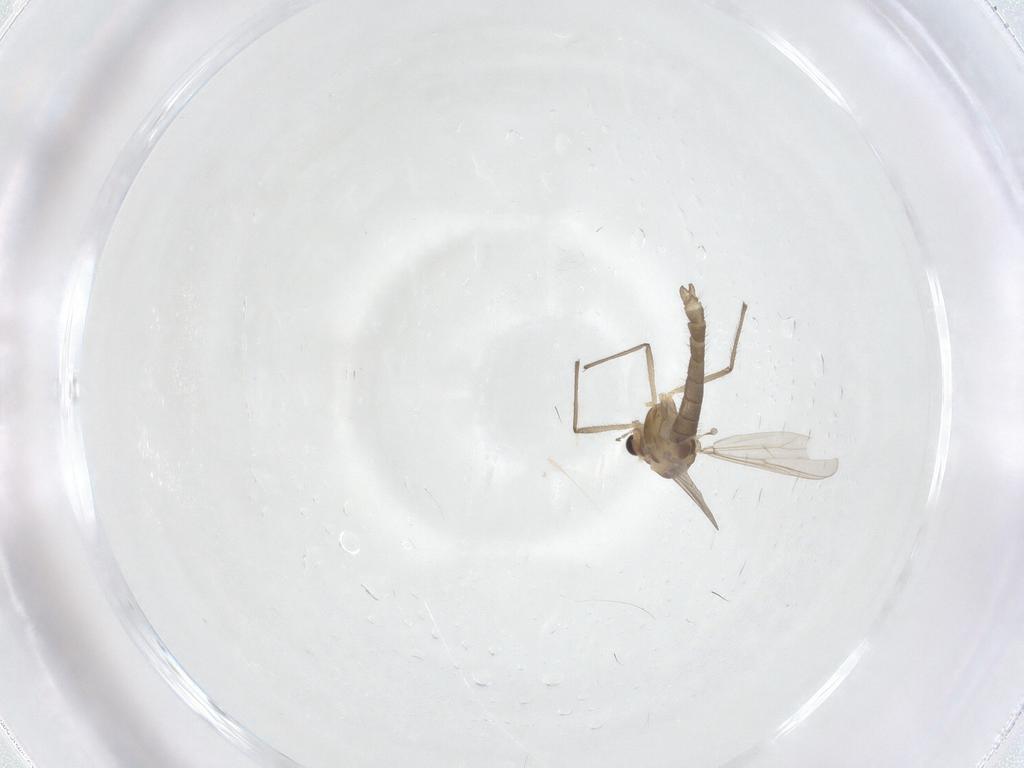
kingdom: Animalia
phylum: Arthropoda
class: Insecta
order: Diptera
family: Chironomidae
